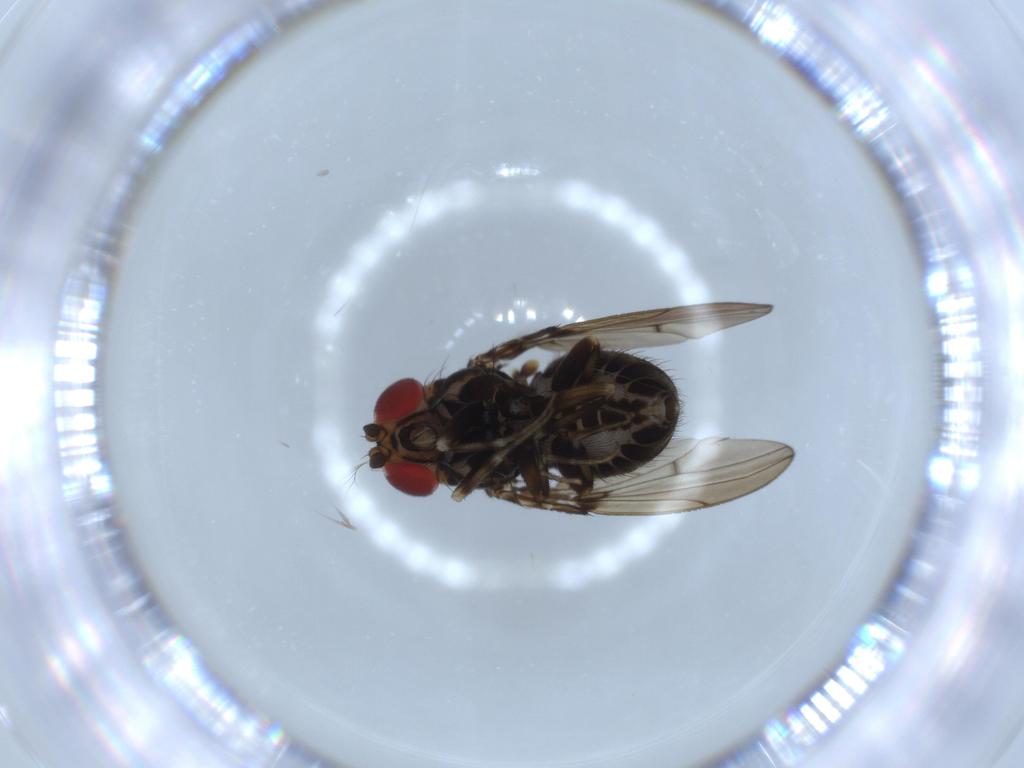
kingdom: Animalia
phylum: Arthropoda
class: Insecta
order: Diptera
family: Drosophilidae
